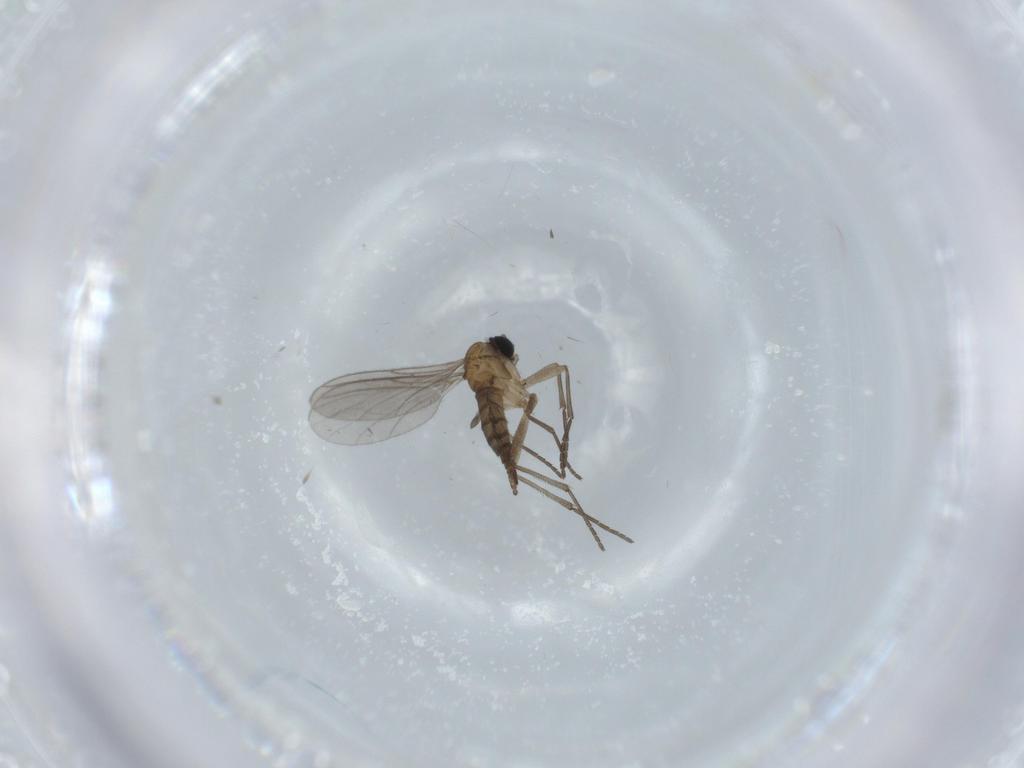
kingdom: Animalia
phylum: Arthropoda
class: Insecta
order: Diptera
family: Sciaridae
